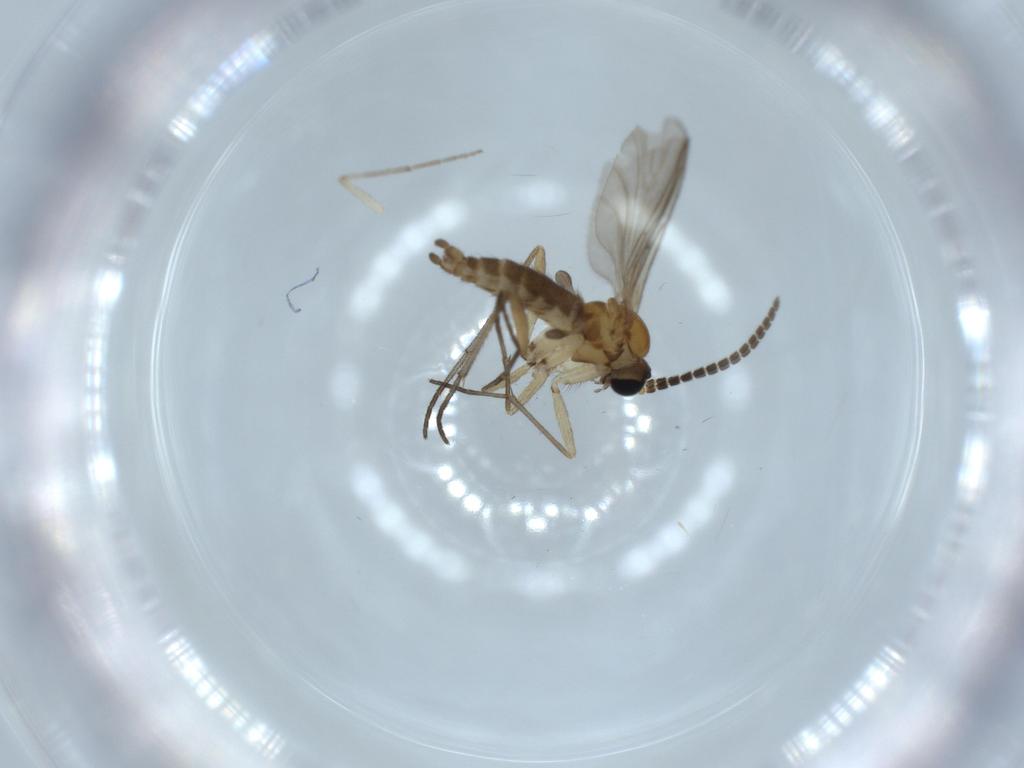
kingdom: Animalia
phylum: Arthropoda
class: Insecta
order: Diptera
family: Sciaridae
